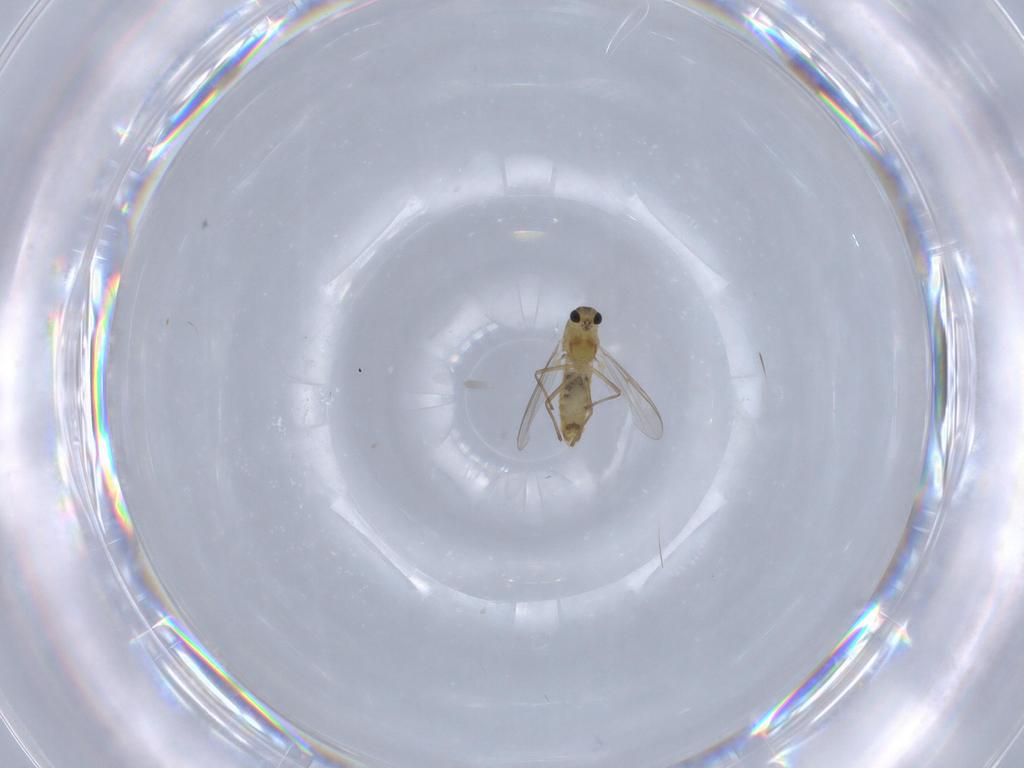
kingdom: Animalia
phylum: Arthropoda
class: Insecta
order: Diptera
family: Chironomidae
